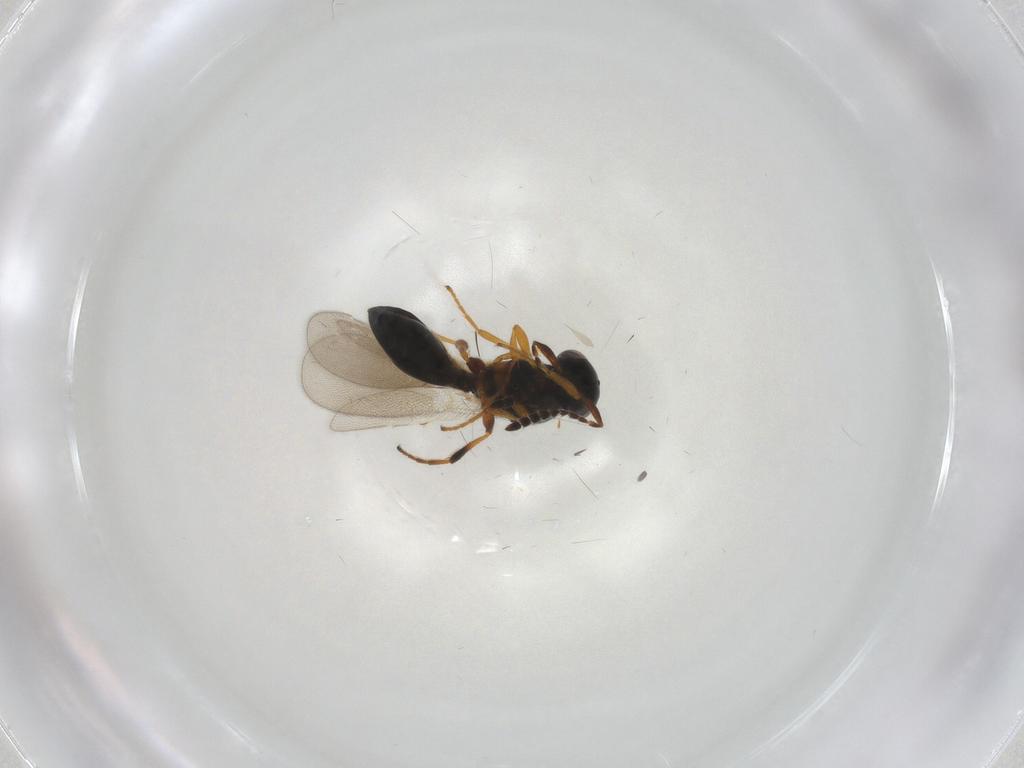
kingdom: Animalia
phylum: Arthropoda
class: Insecta
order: Hymenoptera
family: Platygastridae
